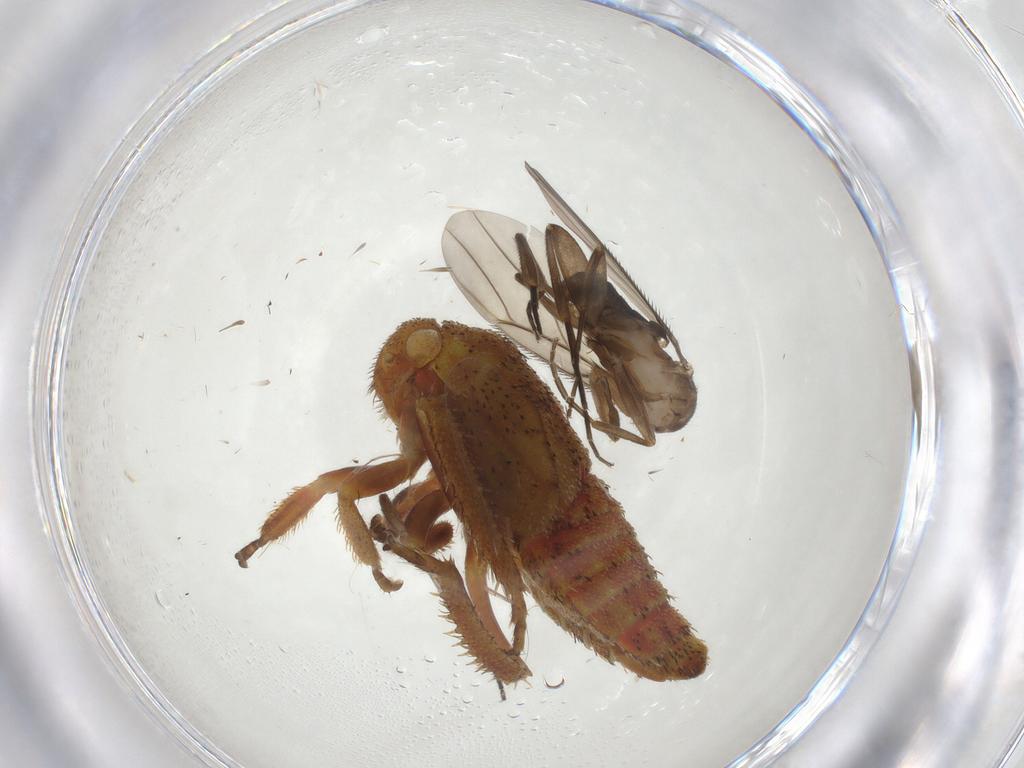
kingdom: Animalia
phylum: Arthropoda
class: Insecta
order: Diptera
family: Phoridae
